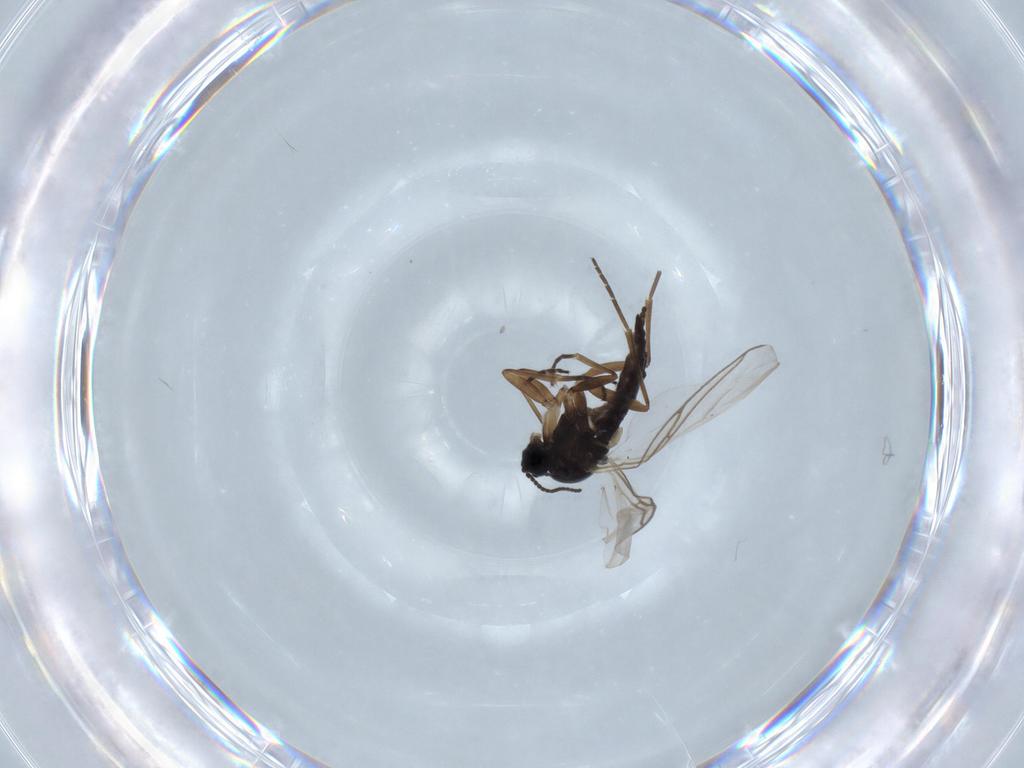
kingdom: Animalia
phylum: Arthropoda
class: Insecta
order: Diptera
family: Sciaridae
